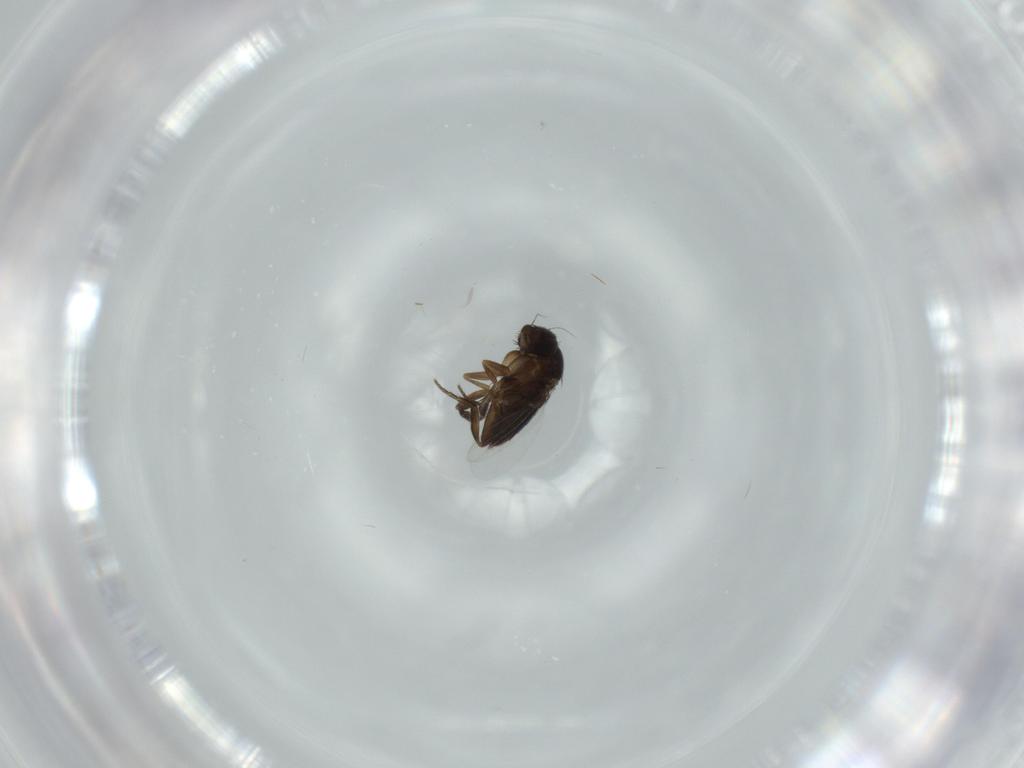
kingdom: Animalia
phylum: Arthropoda
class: Insecta
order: Diptera
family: Phoridae
